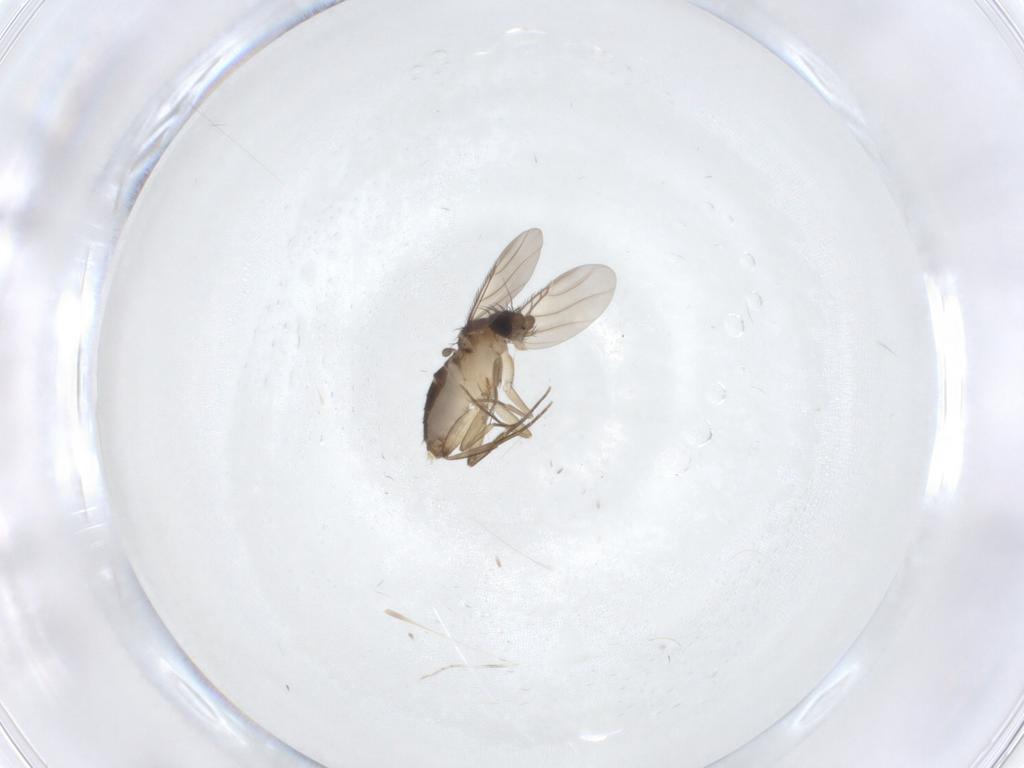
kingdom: Animalia
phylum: Arthropoda
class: Insecta
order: Diptera
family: Phoridae
